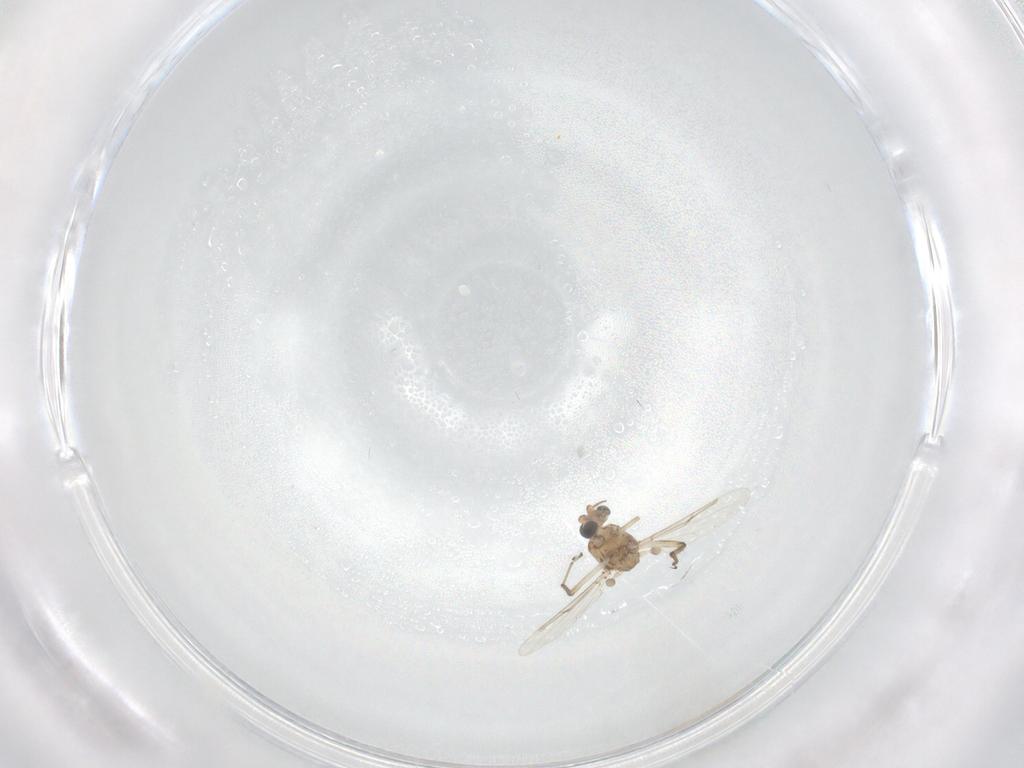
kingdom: Animalia
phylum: Arthropoda
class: Insecta
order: Diptera
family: Ceratopogonidae
